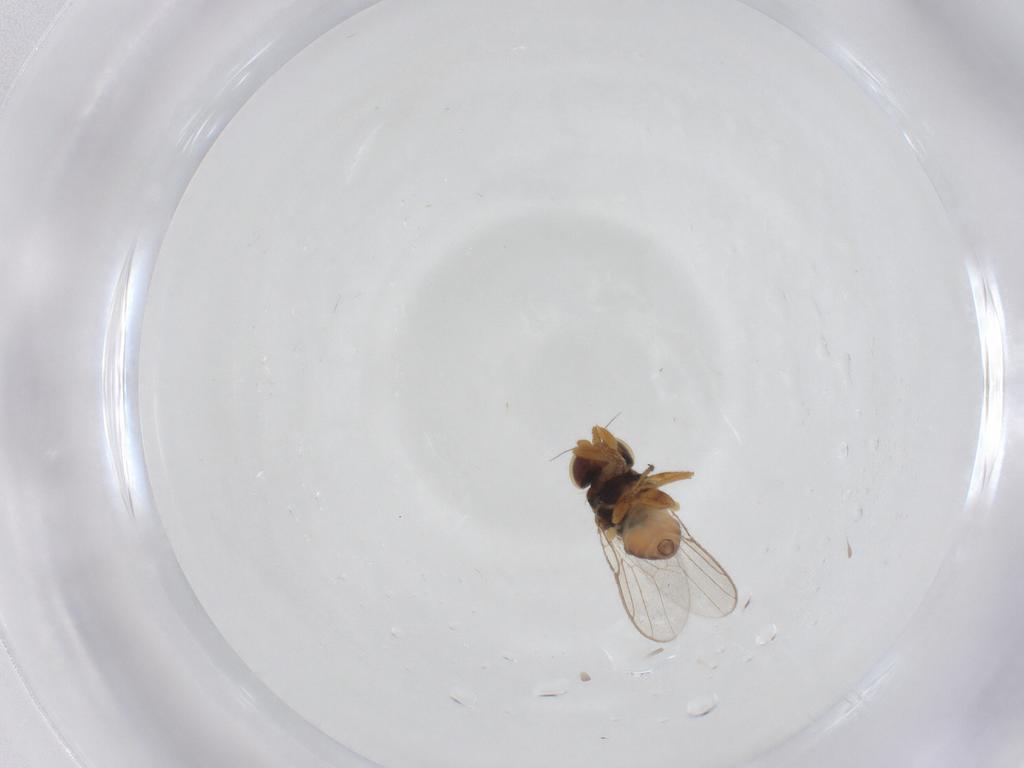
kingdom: Animalia
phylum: Arthropoda
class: Insecta
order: Diptera
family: Chloropidae
